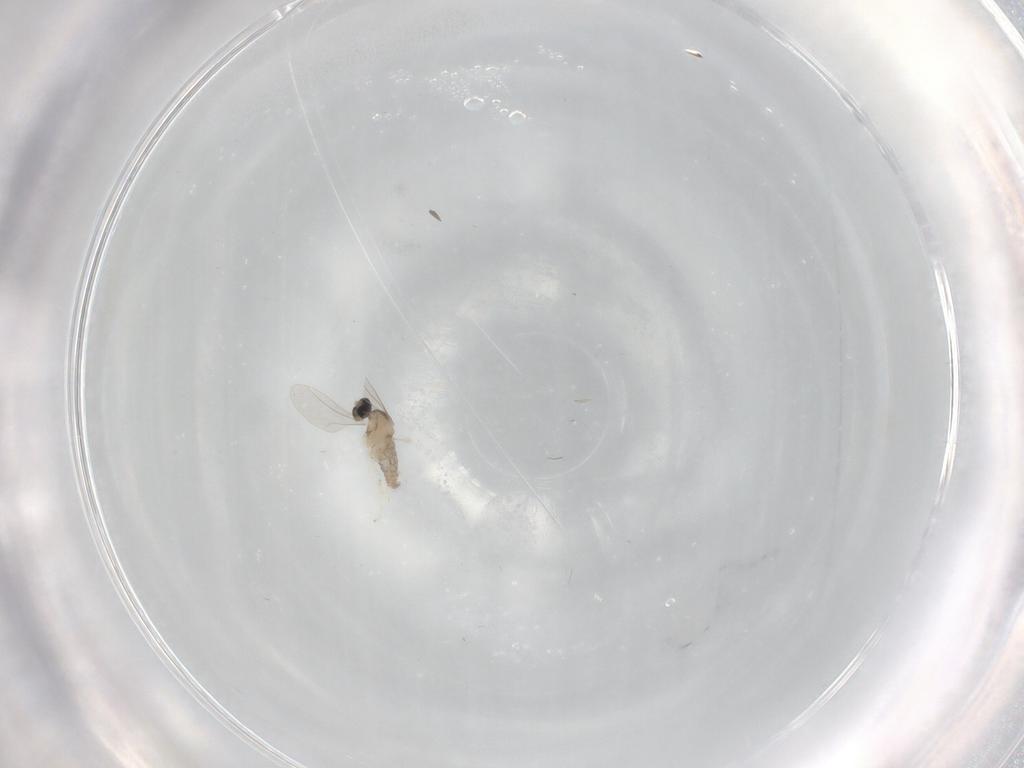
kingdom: Animalia
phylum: Arthropoda
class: Insecta
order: Diptera
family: Cecidomyiidae
